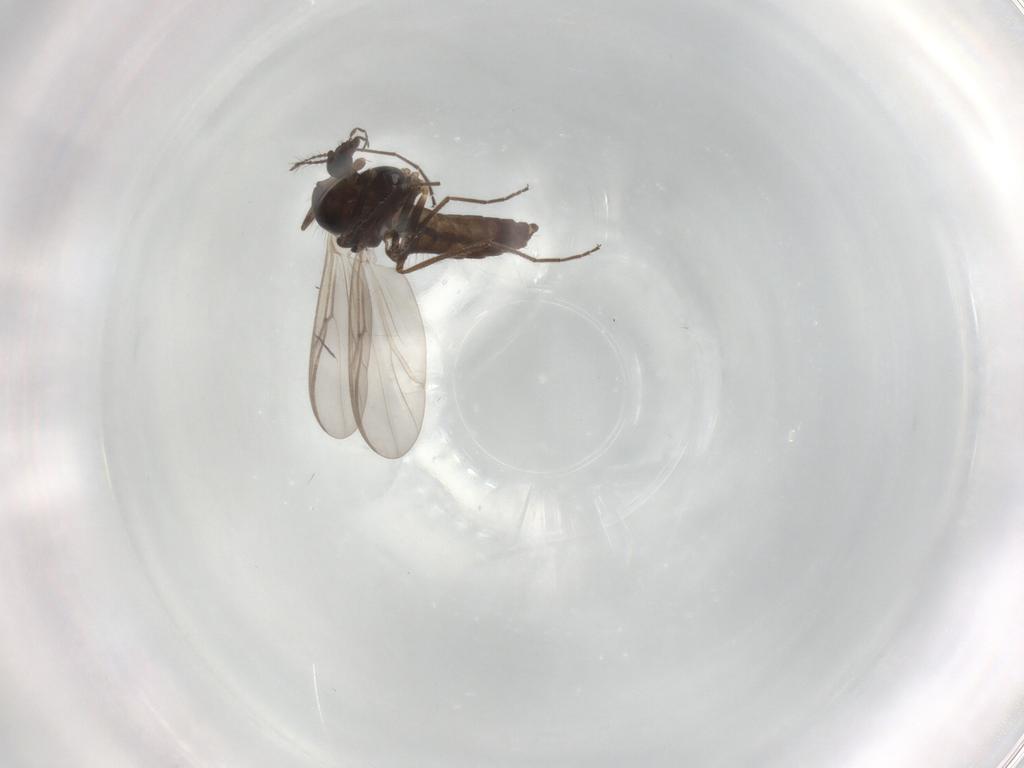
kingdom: Animalia
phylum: Arthropoda
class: Insecta
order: Diptera
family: Chironomidae
